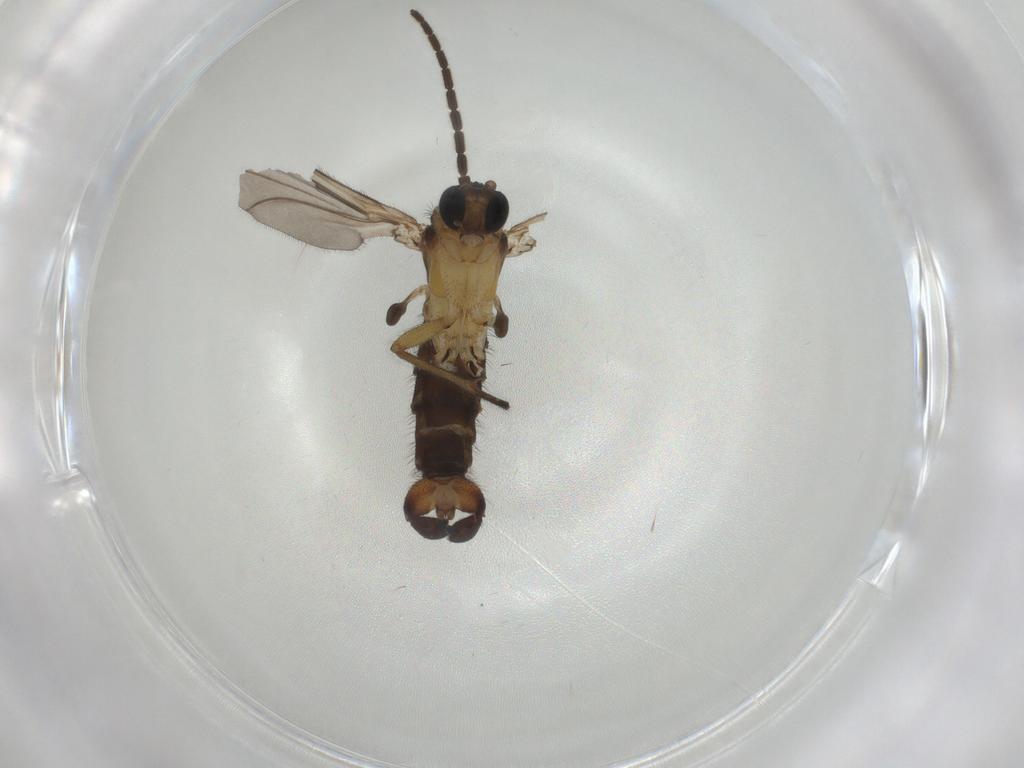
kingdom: Animalia
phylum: Arthropoda
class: Insecta
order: Diptera
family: Sciaridae
